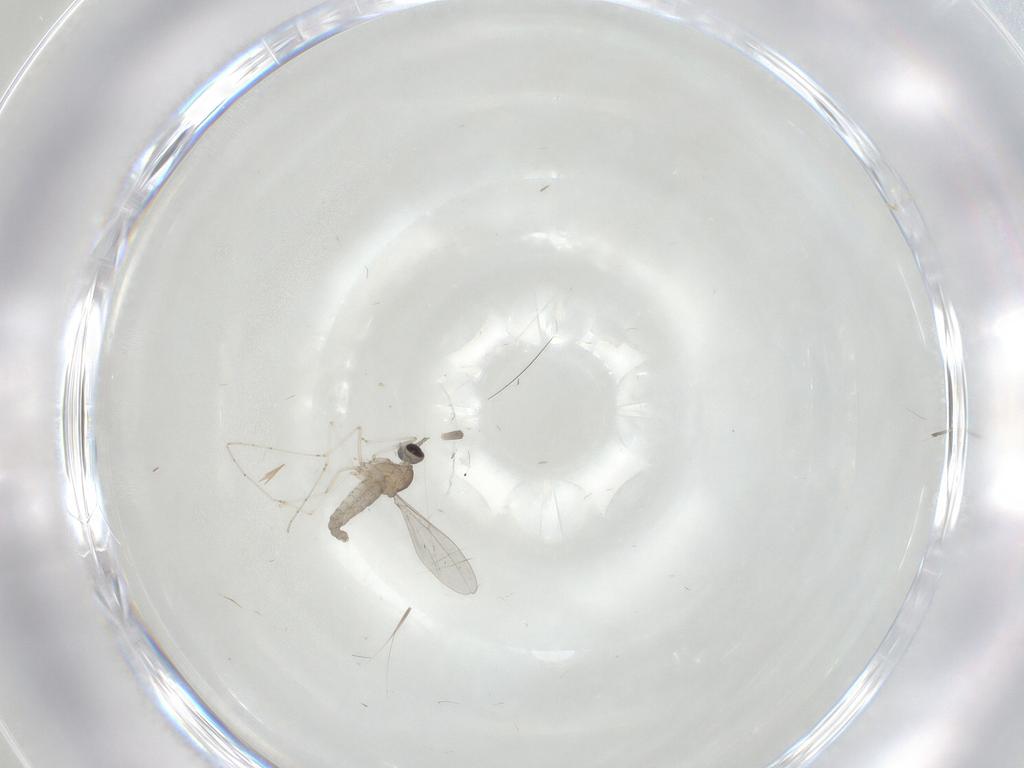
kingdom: Animalia
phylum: Arthropoda
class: Insecta
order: Diptera
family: Cecidomyiidae
